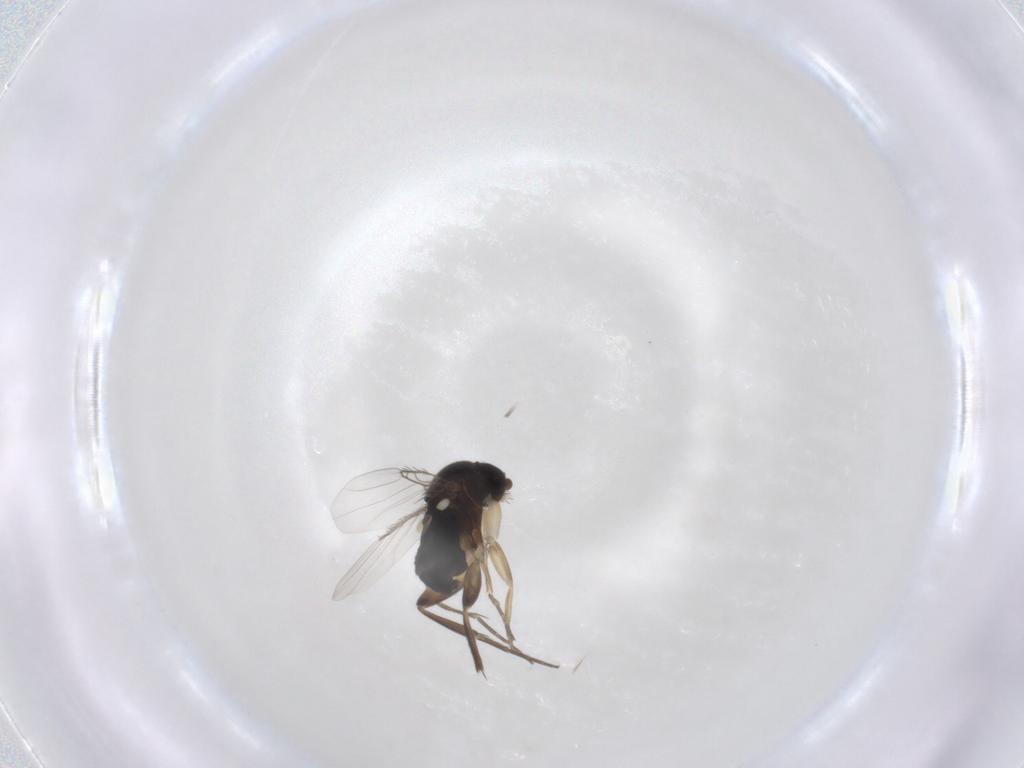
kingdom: Animalia
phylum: Arthropoda
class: Insecta
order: Diptera
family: Phoridae
